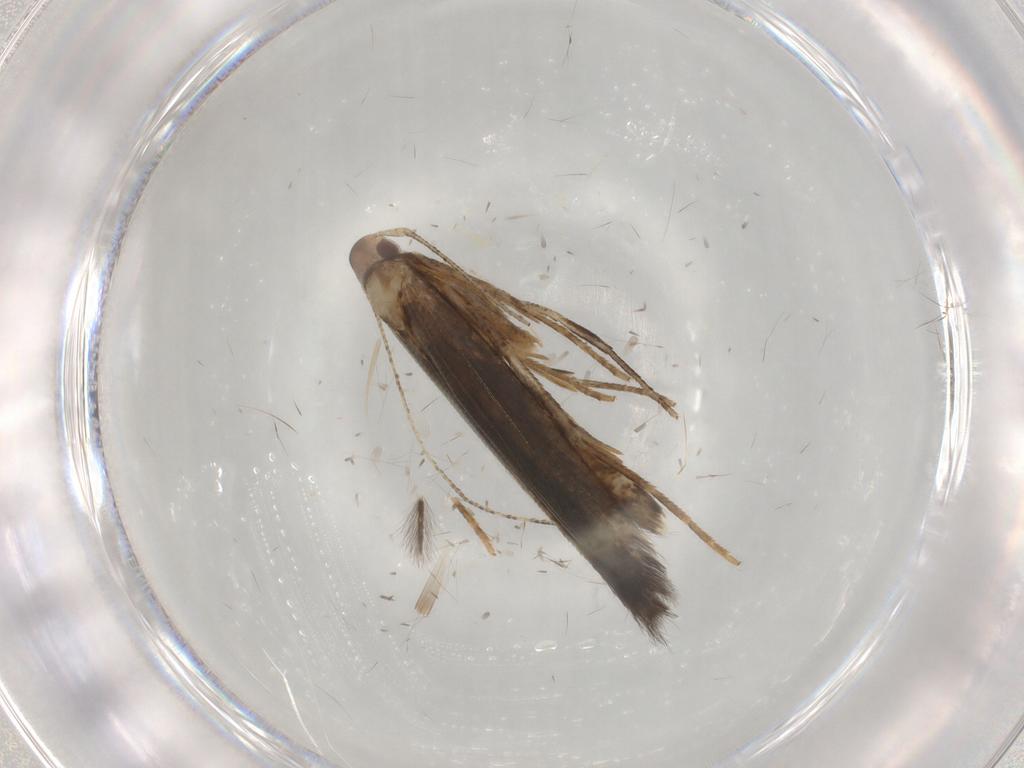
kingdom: Animalia
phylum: Arthropoda
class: Insecta
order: Lepidoptera
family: Cosmopterigidae
